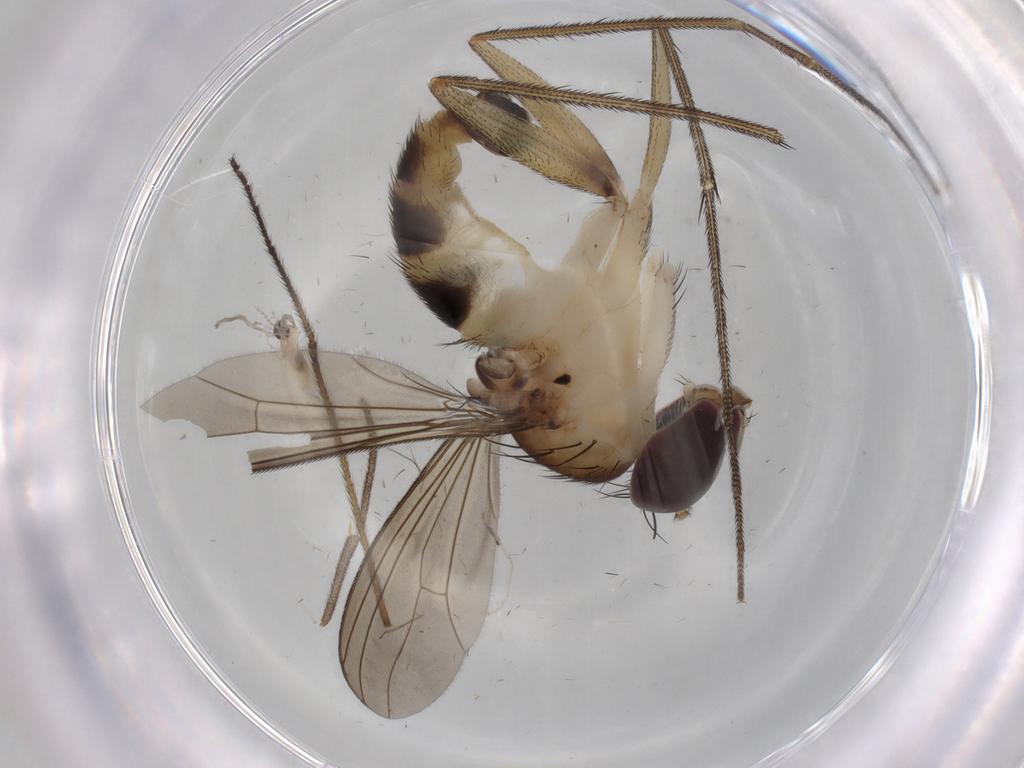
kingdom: Animalia
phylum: Arthropoda
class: Insecta
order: Diptera
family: Dolichopodidae
